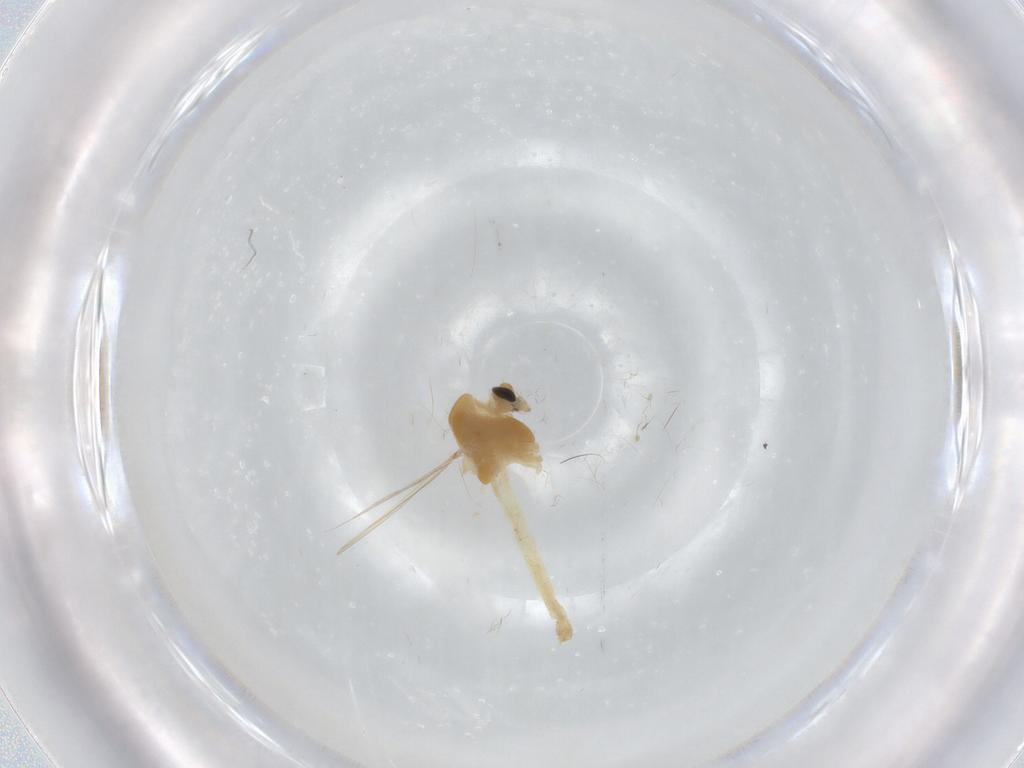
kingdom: Animalia
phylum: Arthropoda
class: Insecta
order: Diptera
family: Chironomidae
